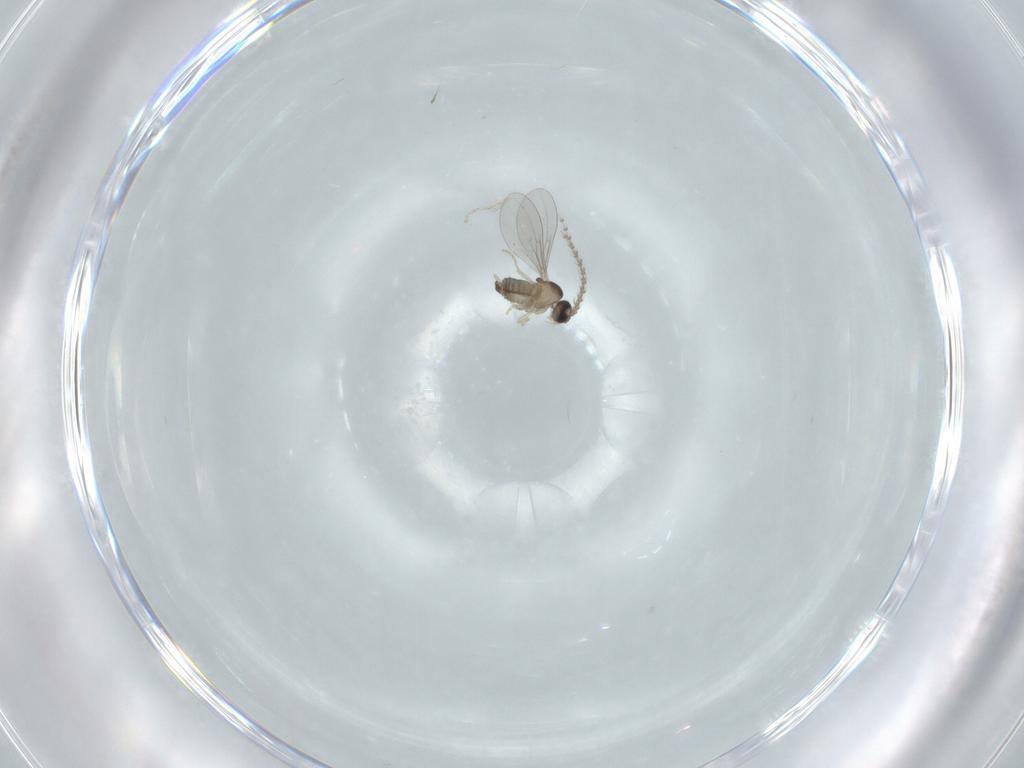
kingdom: Animalia
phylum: Arthropoda
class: Insecta
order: Diptera
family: Cecidomyiidae
